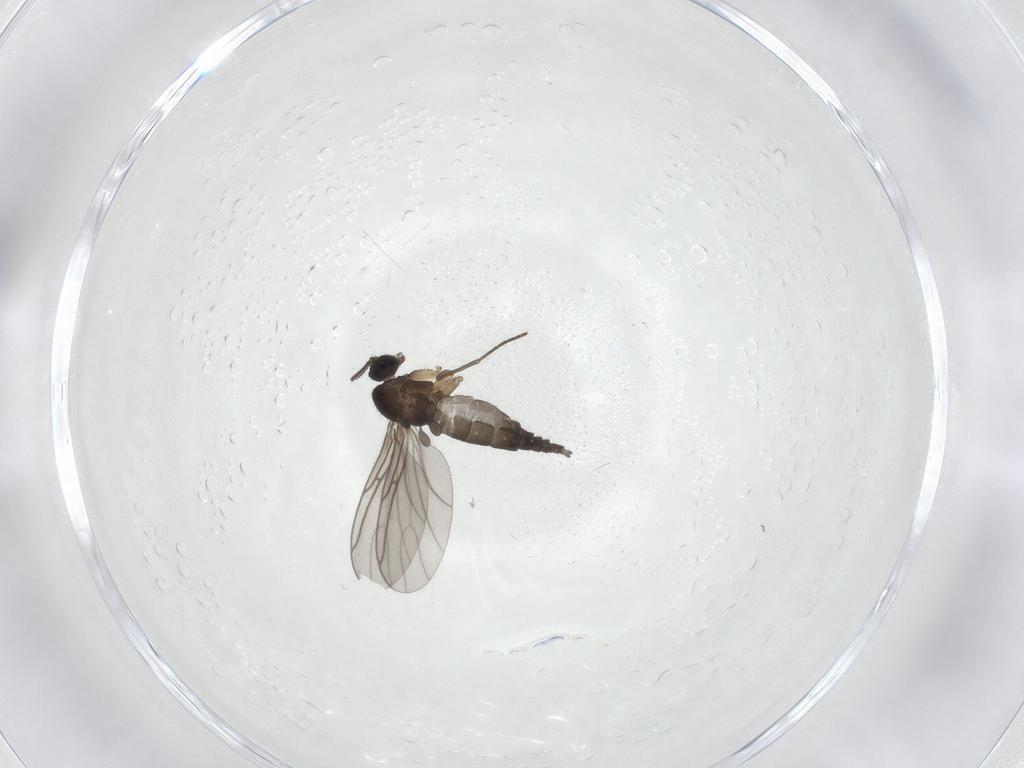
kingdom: Animalia
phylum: Arthropoda
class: Insecta
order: Diptera
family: Sciaridae
